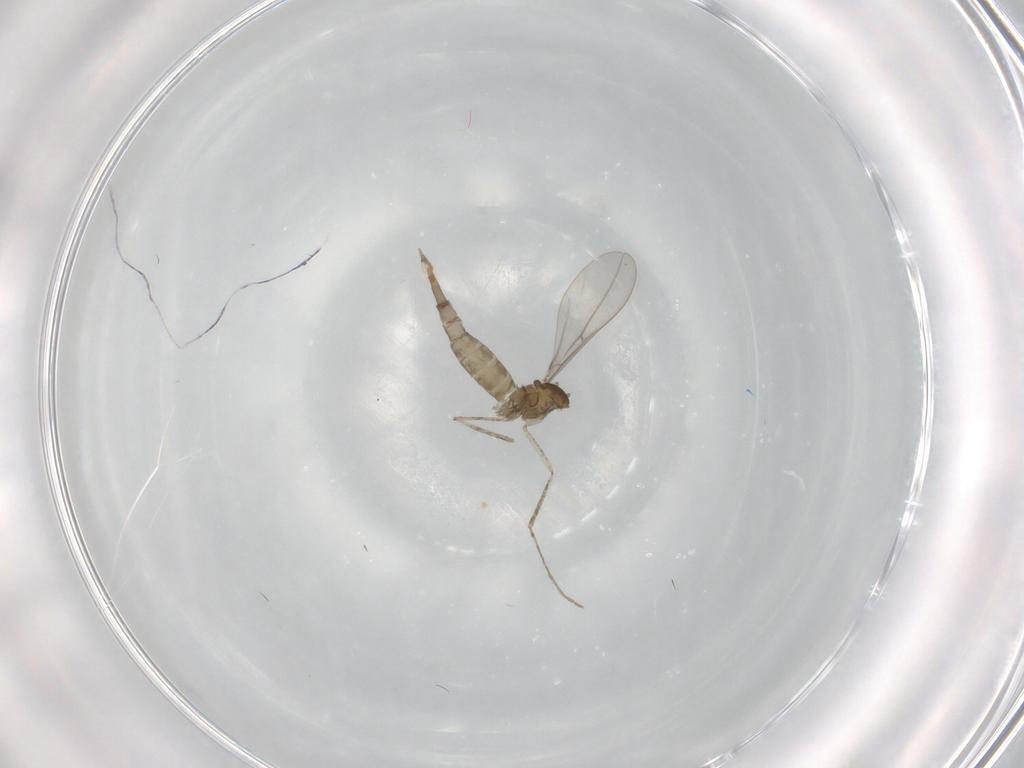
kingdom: Animalia
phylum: Arthropoda
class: Insecta
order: Diptera
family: Cecidomyiidae
